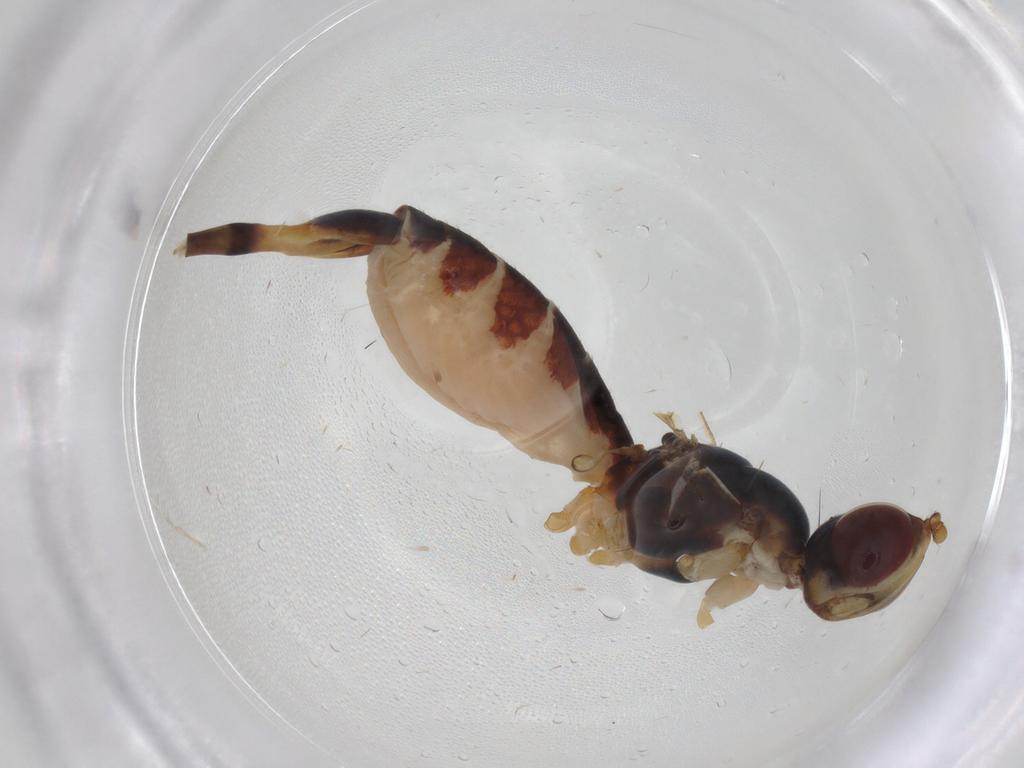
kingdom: Animalia
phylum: Arthropoda
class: Insecta
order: Diptera
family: Micropezidae
